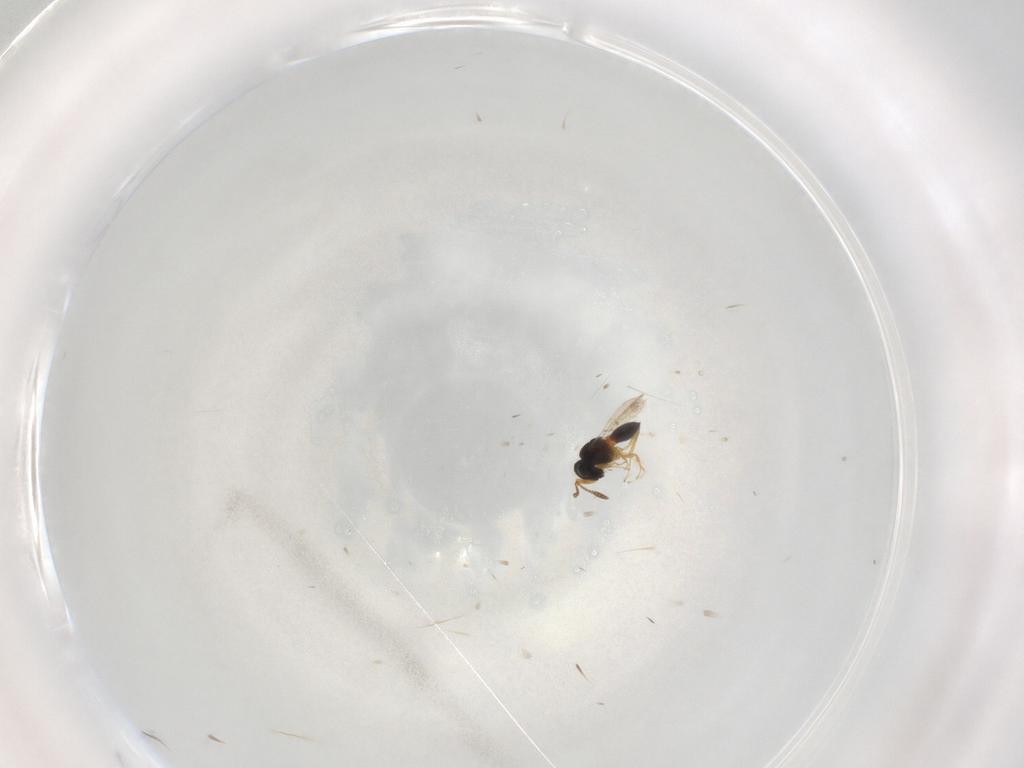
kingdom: Animalia
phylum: Arthropoda
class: Insecta
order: Hymenoptera
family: Scelionidae
